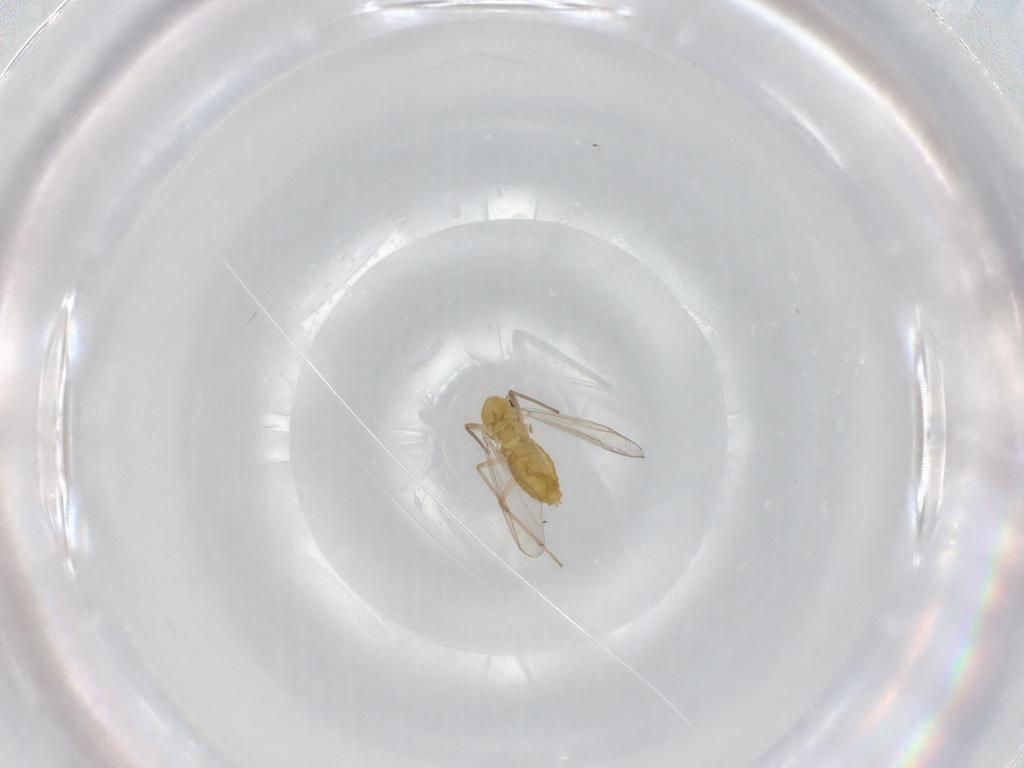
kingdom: Animalia
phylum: Arthropoda
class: Insecta
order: Diptera
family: Chironomidae
